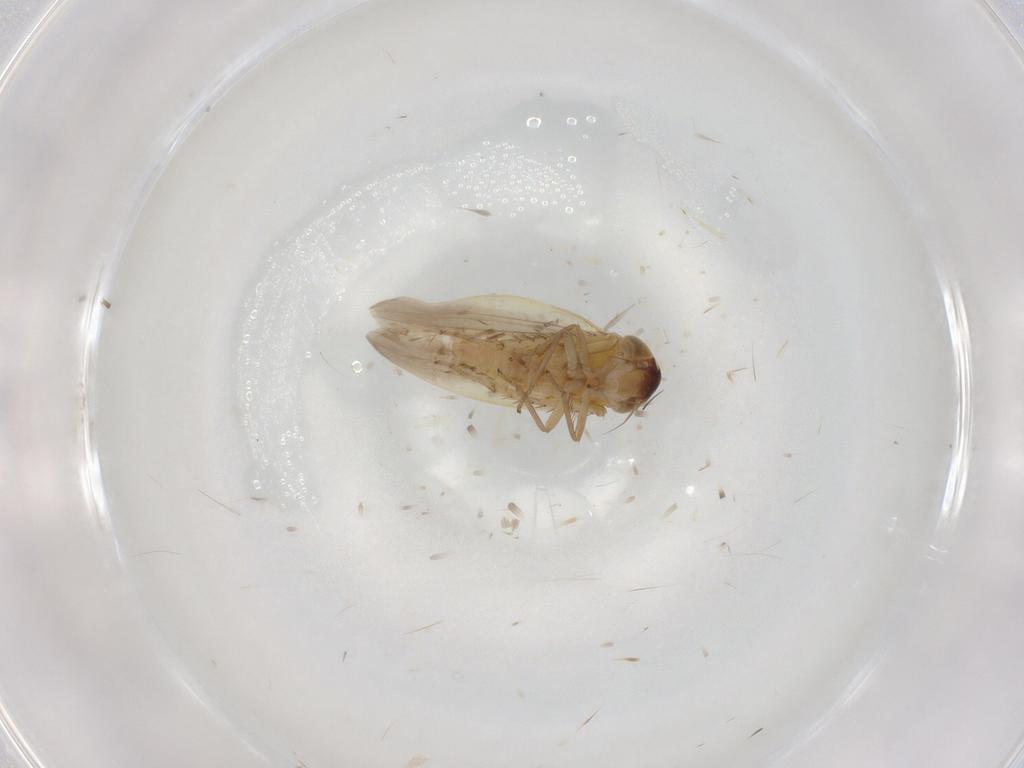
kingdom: Animalia
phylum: Arthropoda
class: Insecta
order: Hemiptera
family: Cicadellidae
